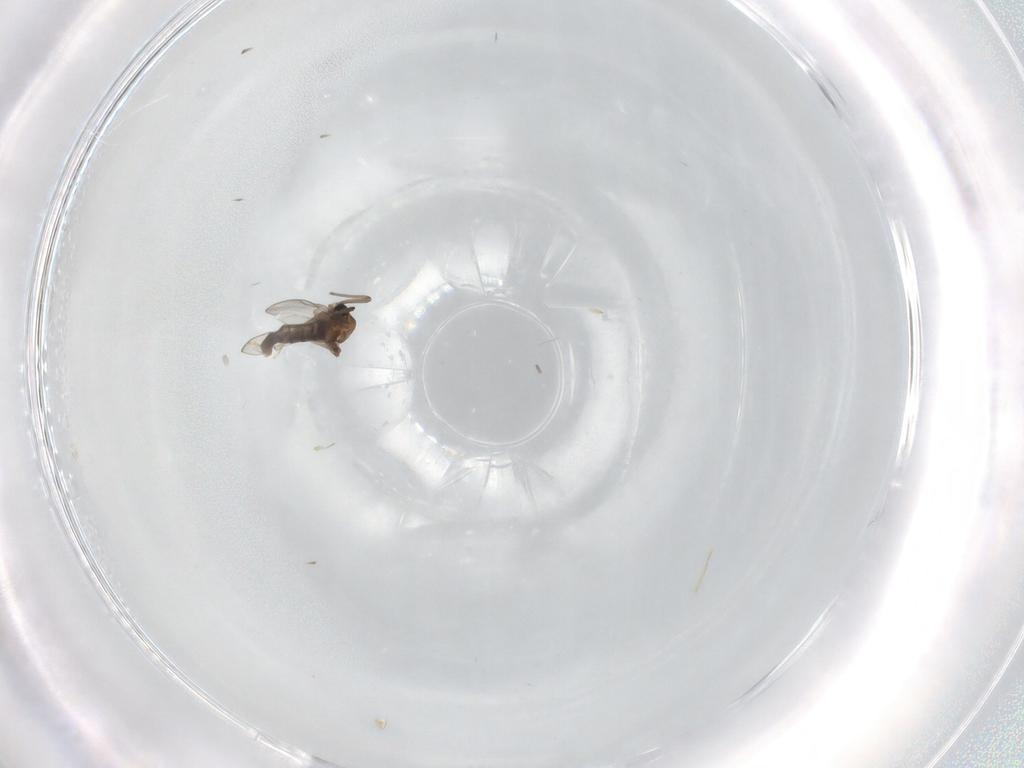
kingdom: Animalia
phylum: Arthropoda
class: Insecta
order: Diptera
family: Chironomidae
